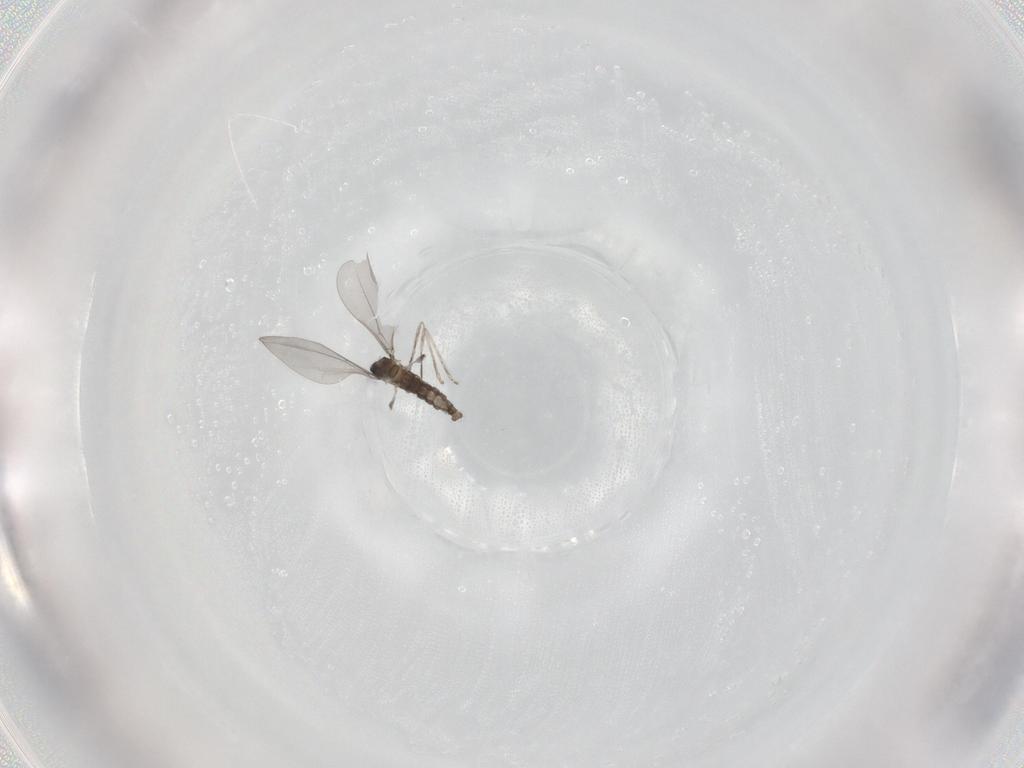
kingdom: Animalia
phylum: Arthropoda
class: Insecta
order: Diptera
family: Cecidomyiidae
